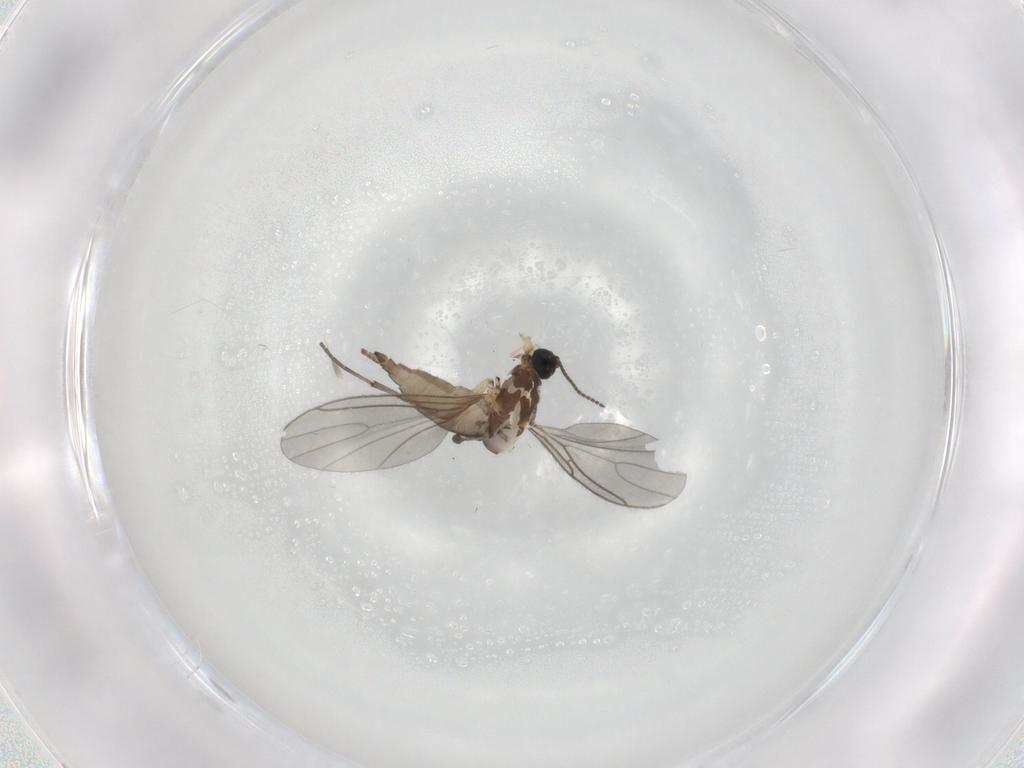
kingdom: Animalia
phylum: Arthropoda
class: Insecta
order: Diptera
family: Sciaridae
